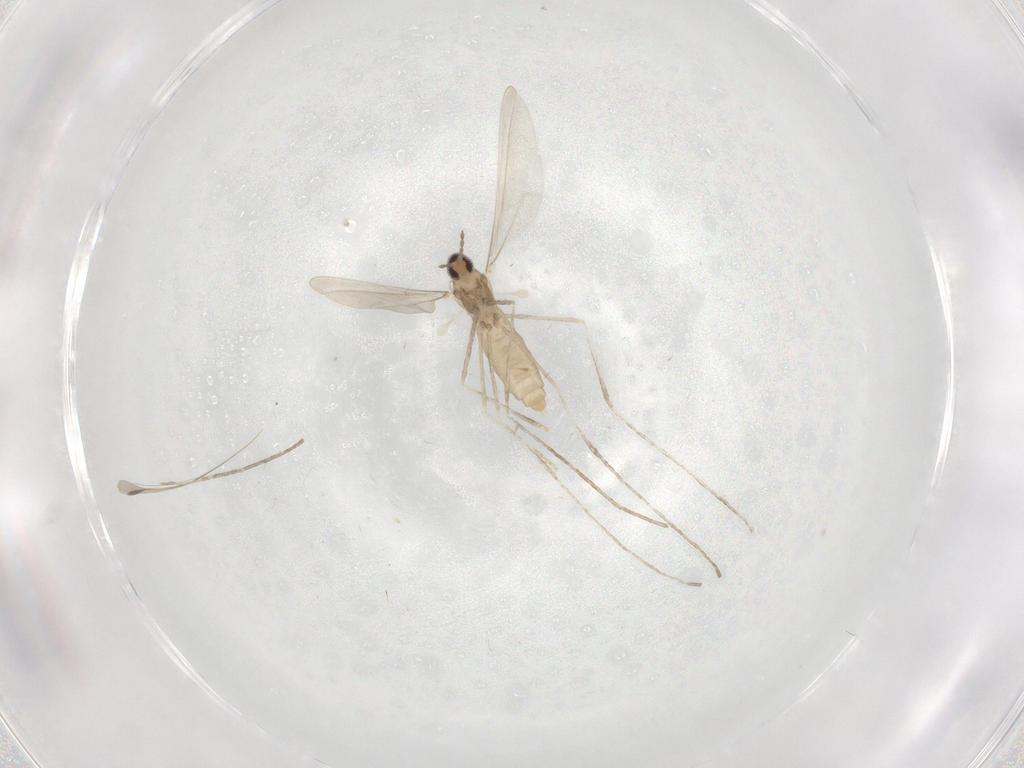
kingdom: Animalia
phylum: Arthropoda
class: Insecta
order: Diptera
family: Cecidomyiidae
